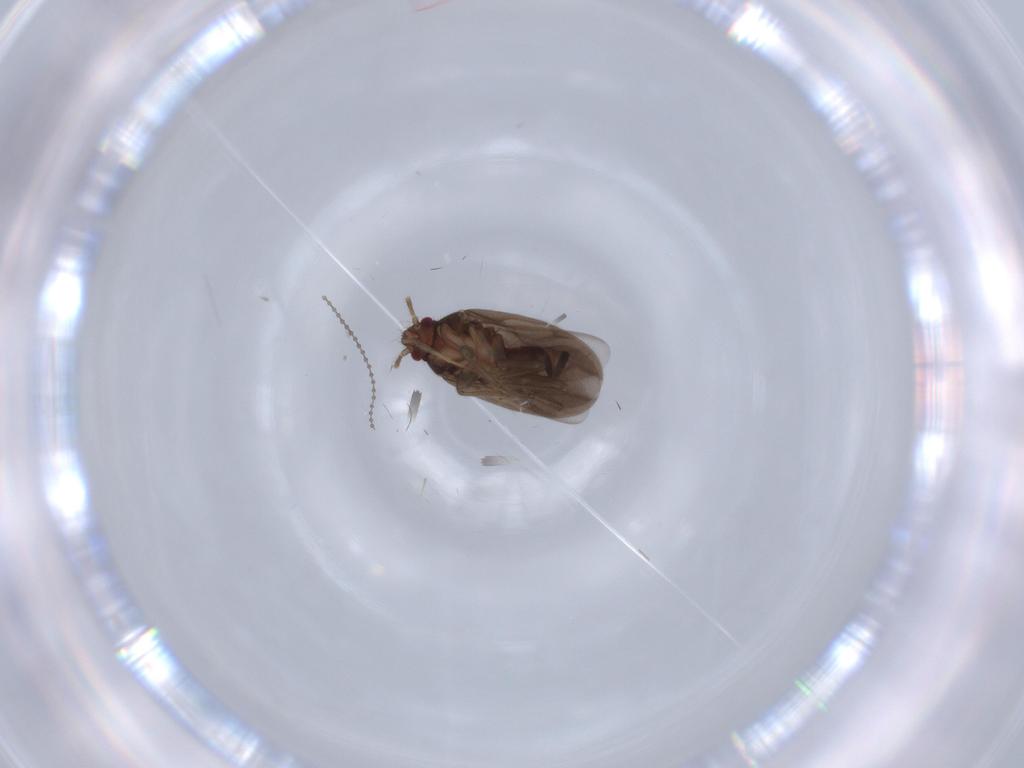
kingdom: Animalia
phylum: Arthropoda
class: Insecta
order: Hemiptera
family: Ceratocombidae
